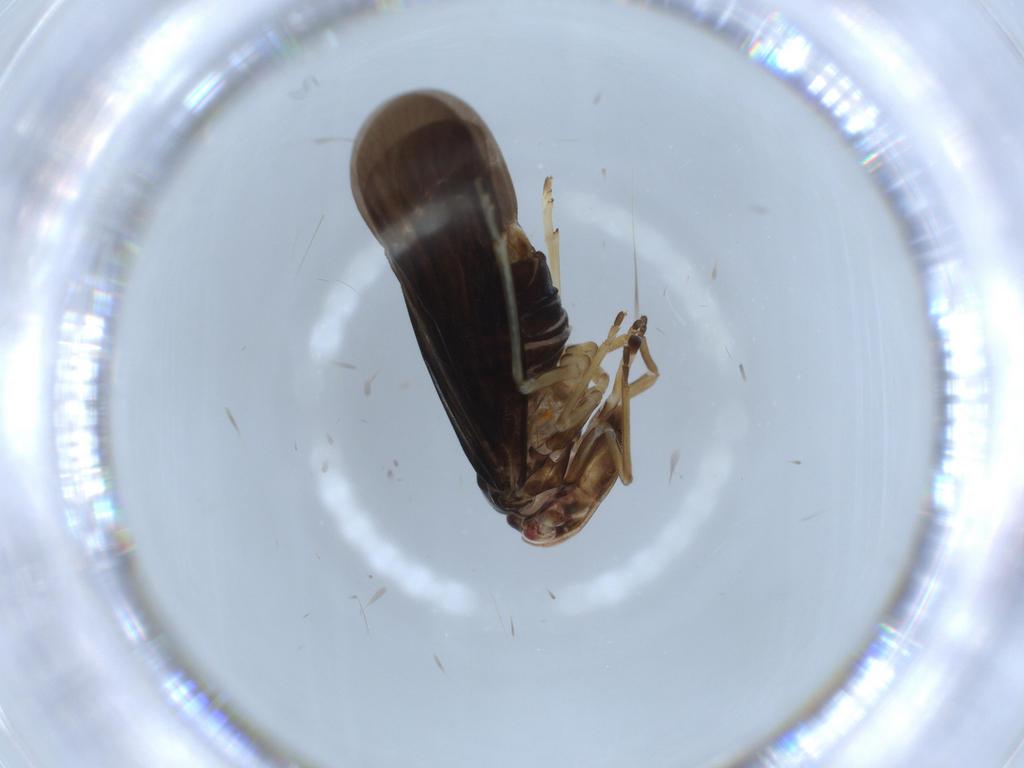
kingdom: Animalia
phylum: Arthropoda
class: Insecta
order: Hemiptera
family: Derbidae
